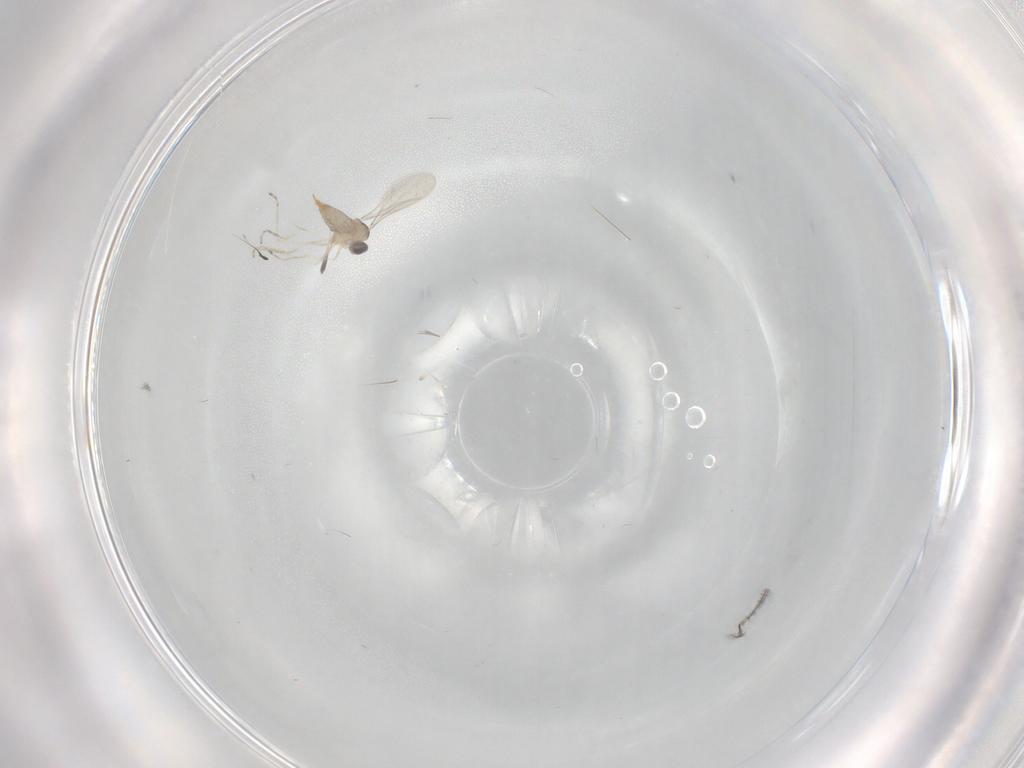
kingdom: Animalia
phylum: Arthropoda
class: Insecta
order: Diptera
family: Cecidomyiidae
